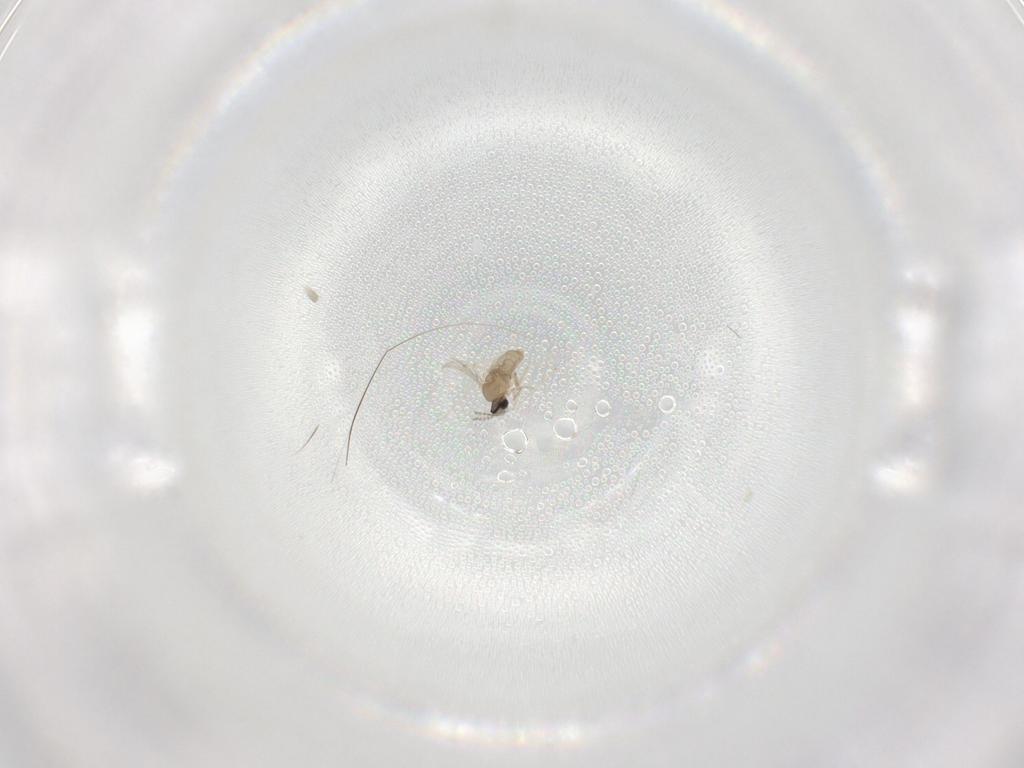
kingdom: Animalia
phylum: Arthropoda
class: Insecta
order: Diptera
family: Cecidomyiidae
